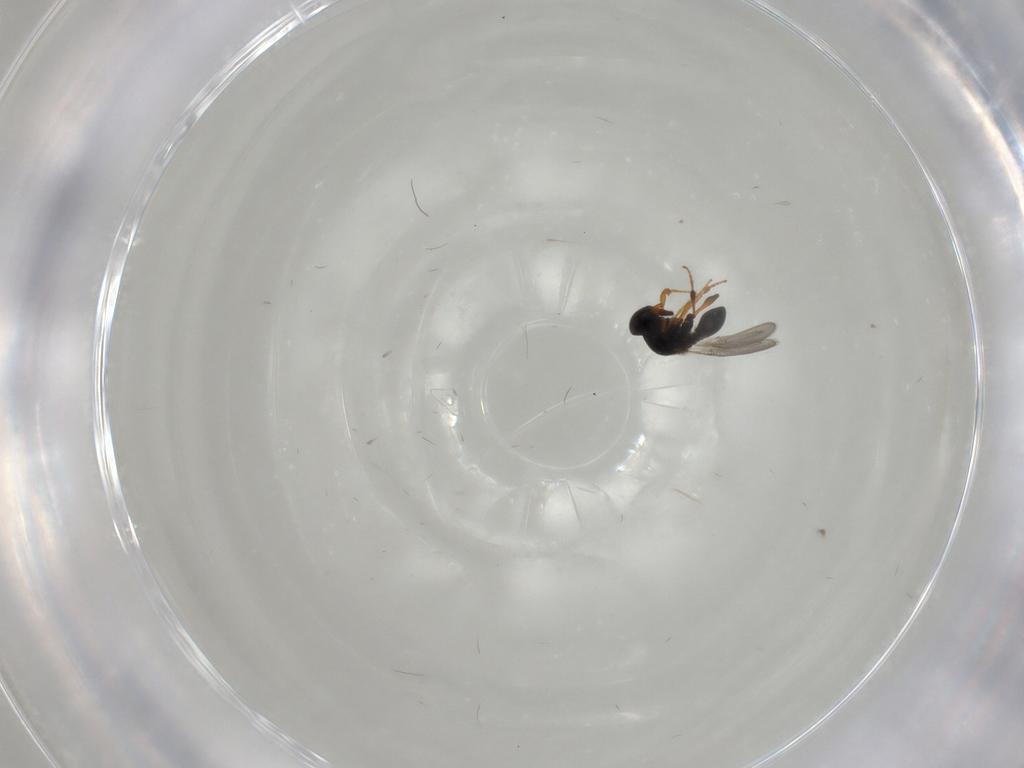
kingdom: Animalia
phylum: Arthropoda
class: Insecta
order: Hymenoptera
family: Platygastridae
